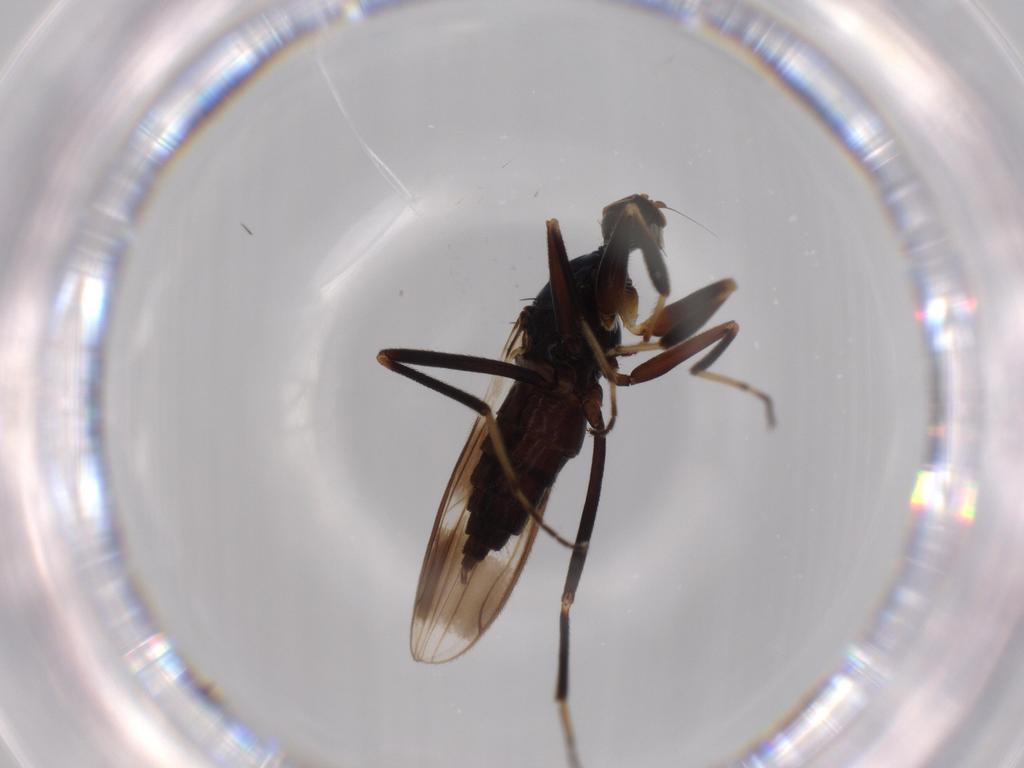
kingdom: Animalia
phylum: Arthropoda
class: Insecta
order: Diptera
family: Hybotidae
